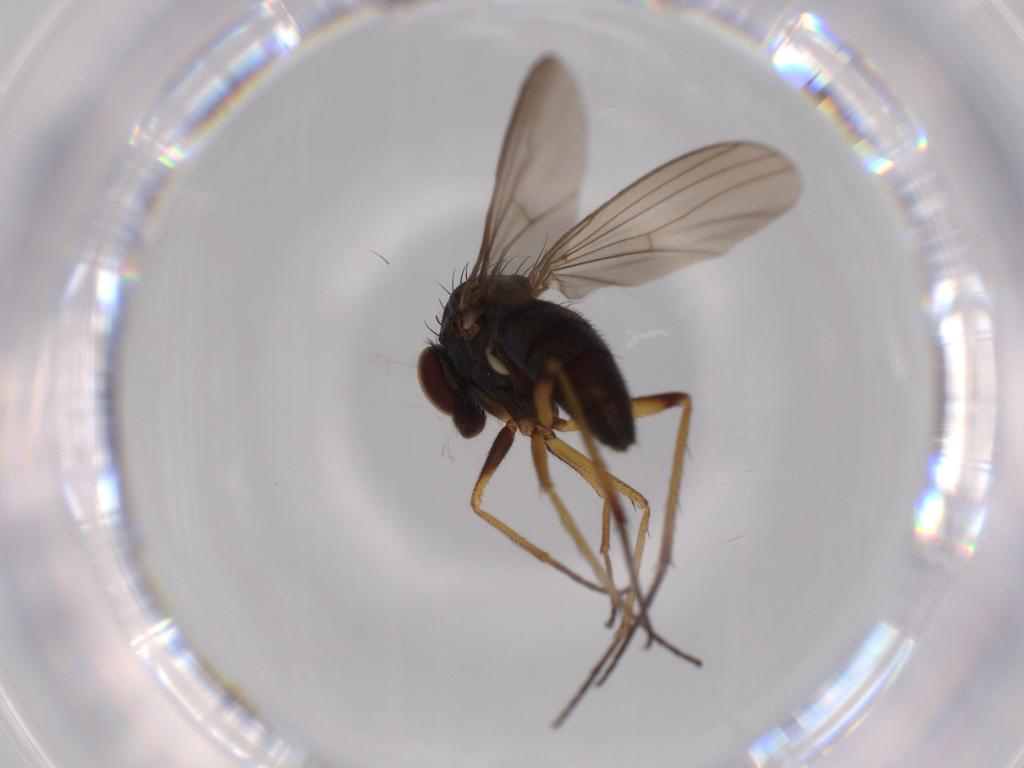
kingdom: Animalia
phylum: Arthropoda
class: Insecta
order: Diptera
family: Dolichopodidae
